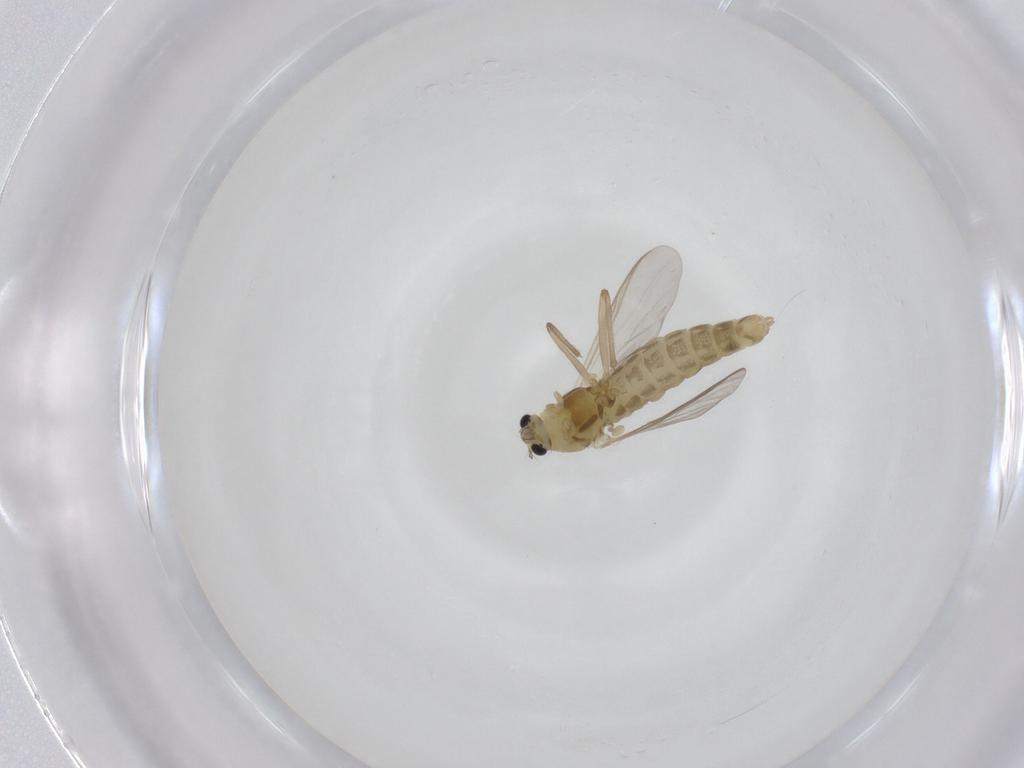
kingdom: Animalia
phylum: Arthropoda
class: Insecta
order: Diptera
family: Chironomidae
